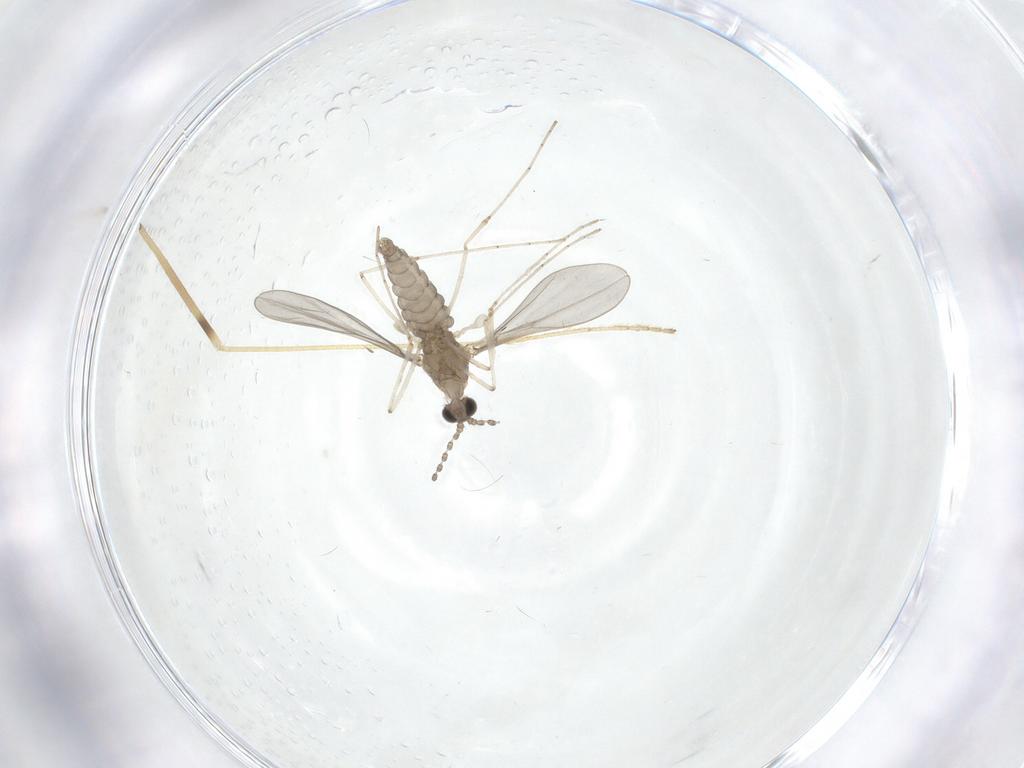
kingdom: Animalia
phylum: Arthropoda
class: Insecta
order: Diptera
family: Limoniidae
